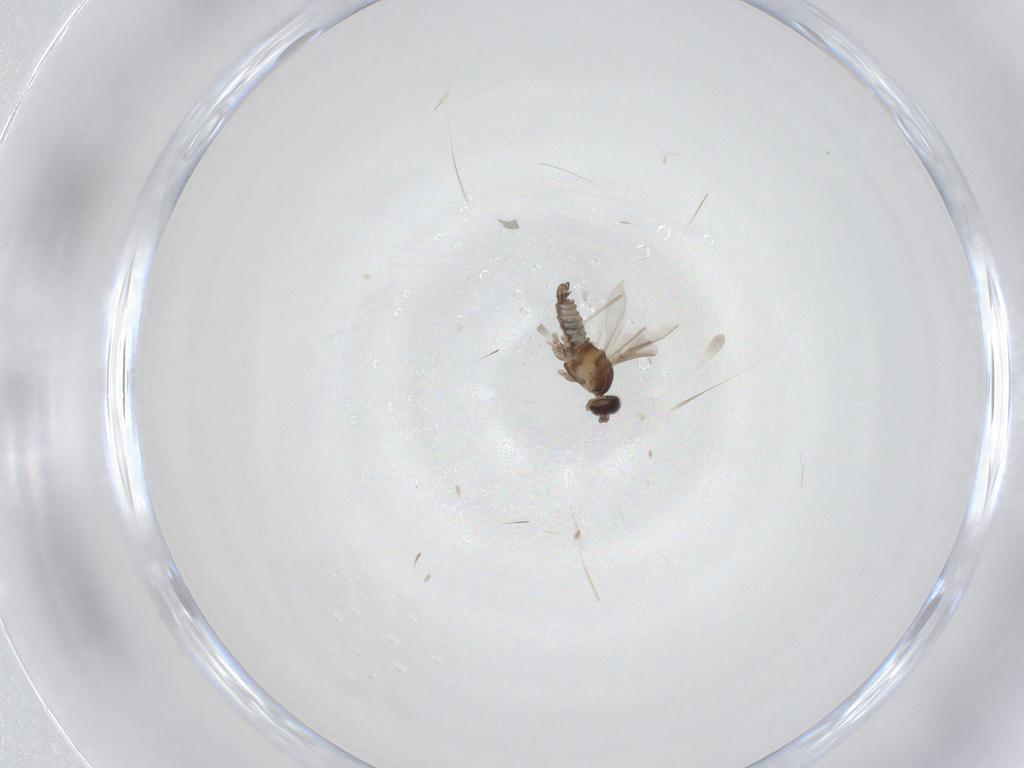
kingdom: Animalia
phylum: Arthropoda
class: Insecta
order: Diptera
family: Cecidomyiidae
